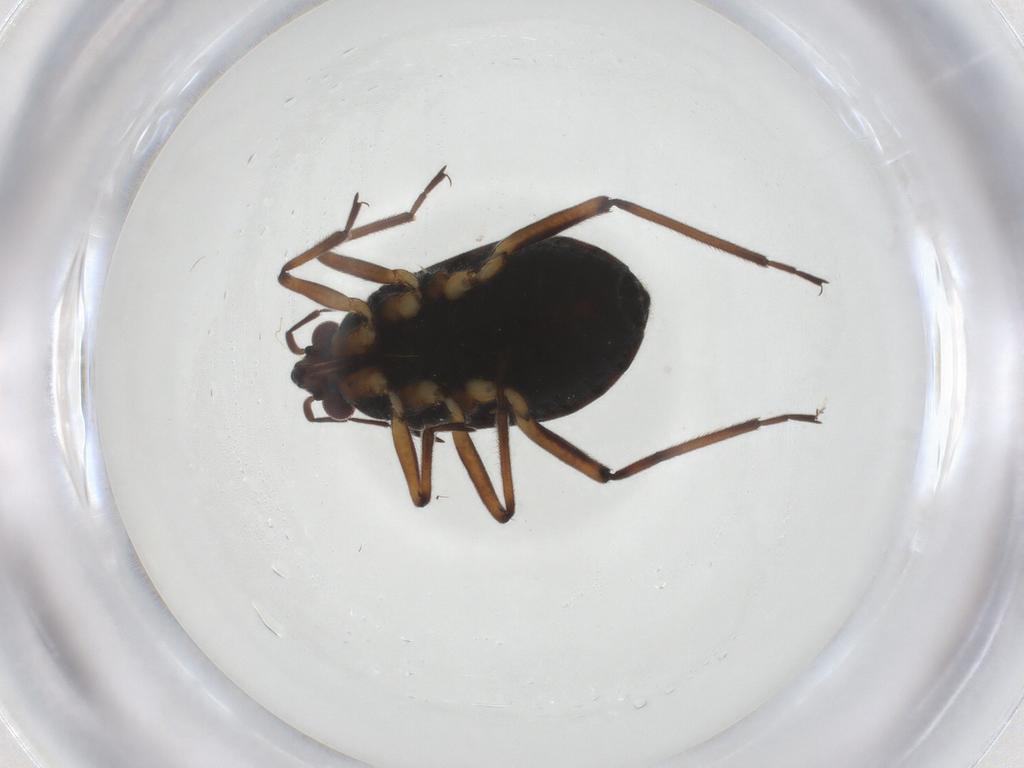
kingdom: Animalia
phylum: Arthropoda
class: Insecta
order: Hemiptera
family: Veliidae
